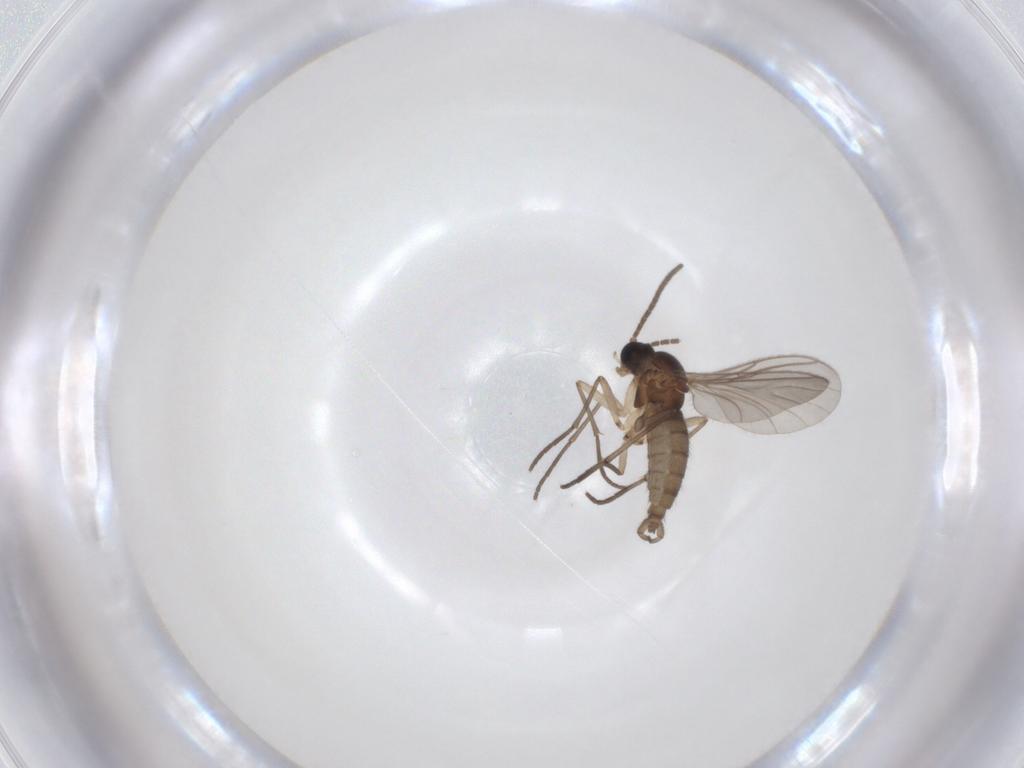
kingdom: Animalia
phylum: Arthropoda
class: Insecta
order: Diptera
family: Sciaridae
